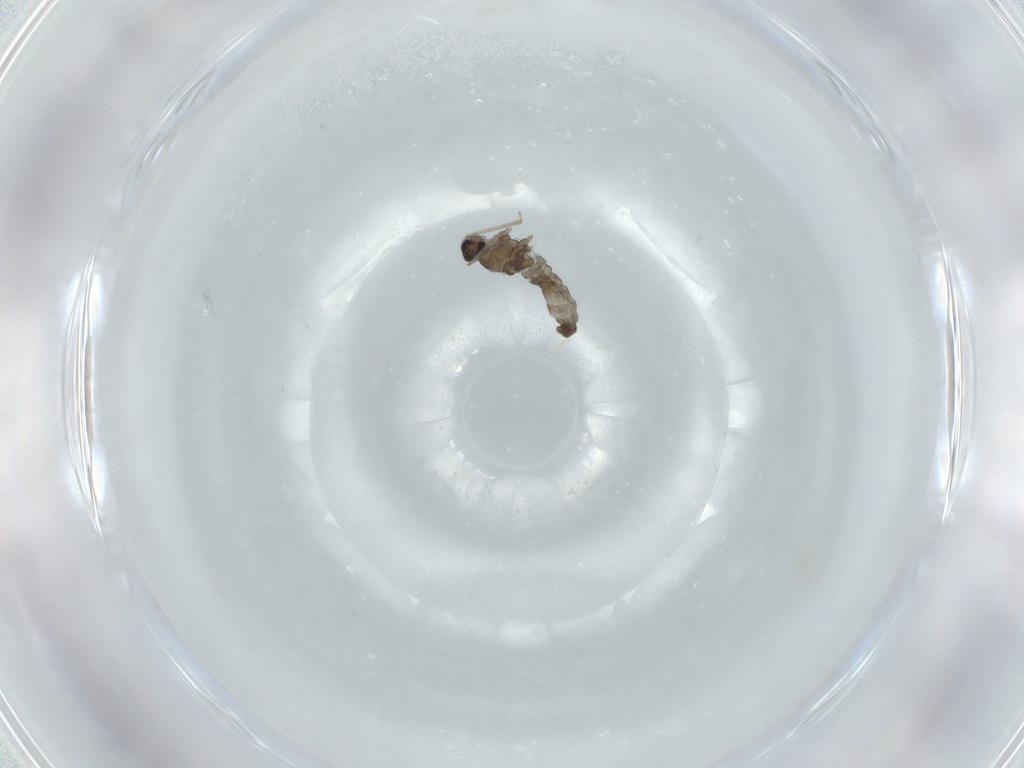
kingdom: Animalia
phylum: Arthropoda
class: Insecta
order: Diptera
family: Cecidomyiidae
